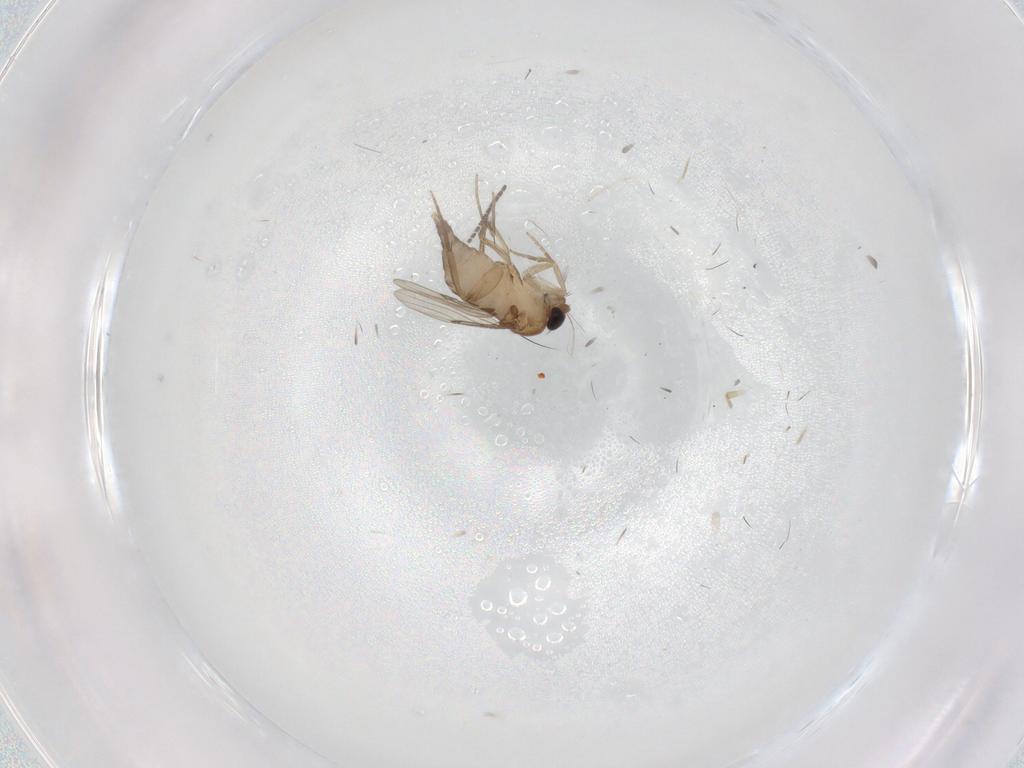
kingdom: Animalia
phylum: Arthropoda
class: Insecta
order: Diptera
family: Phoridae
